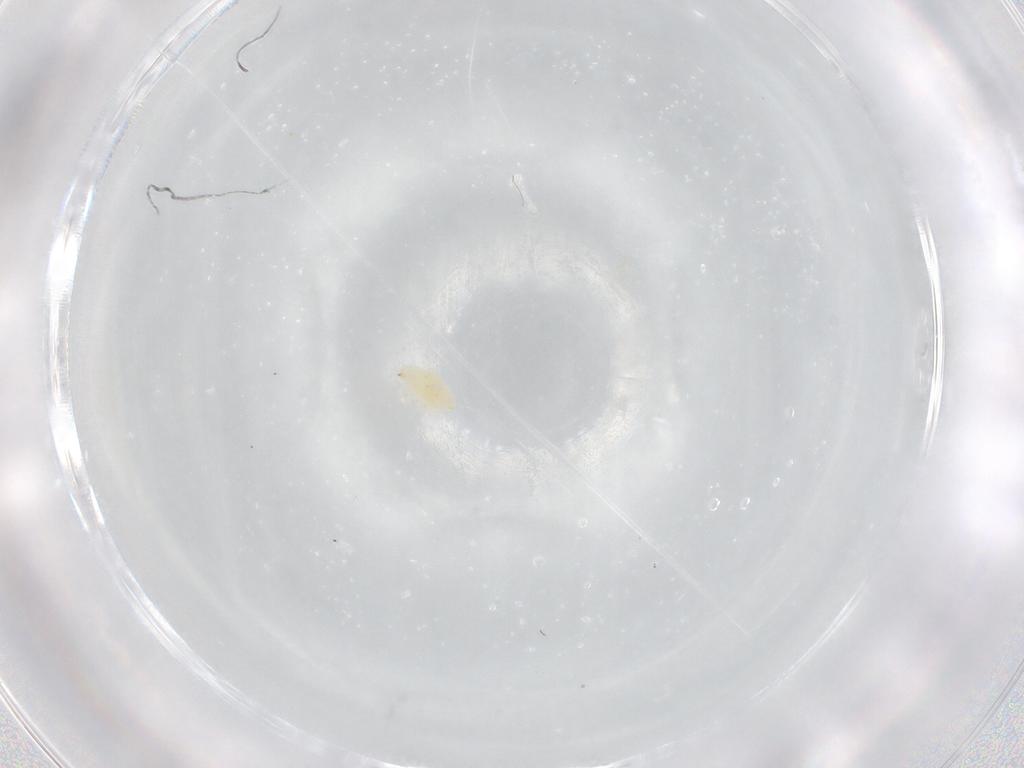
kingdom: Animalia
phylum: Arthropoda
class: Arachnida
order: Trombidiformes
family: Bdellidae
